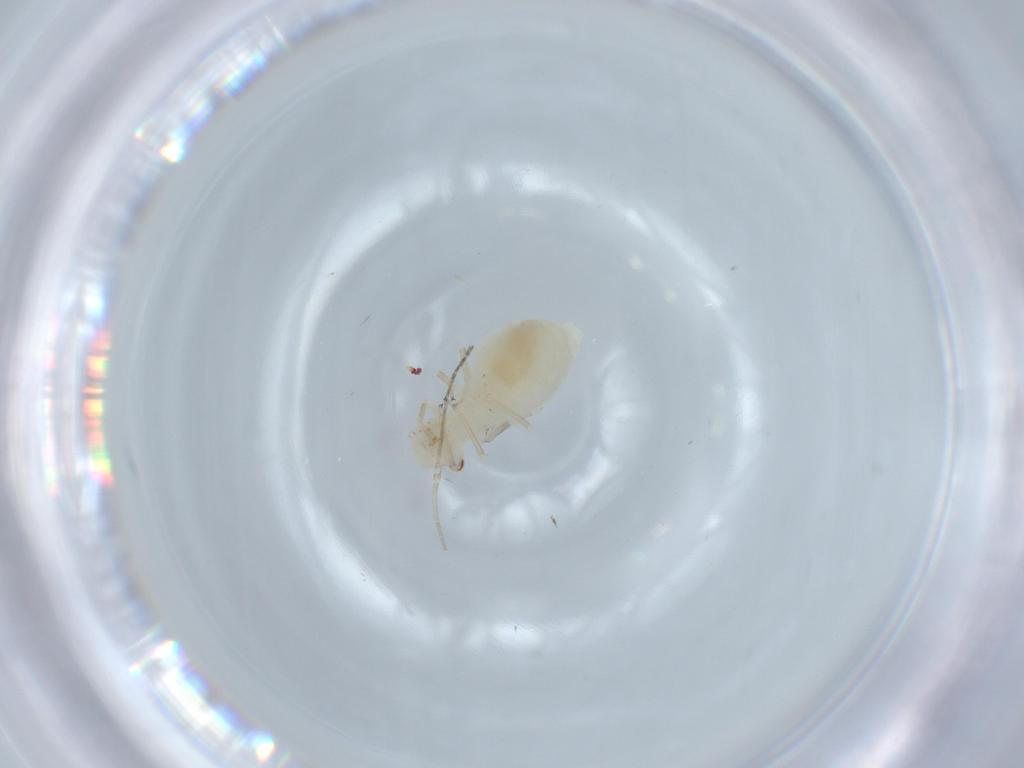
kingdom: Animalia
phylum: Arthropoda
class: Insecta
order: Psocodea
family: Caeciliusidae
